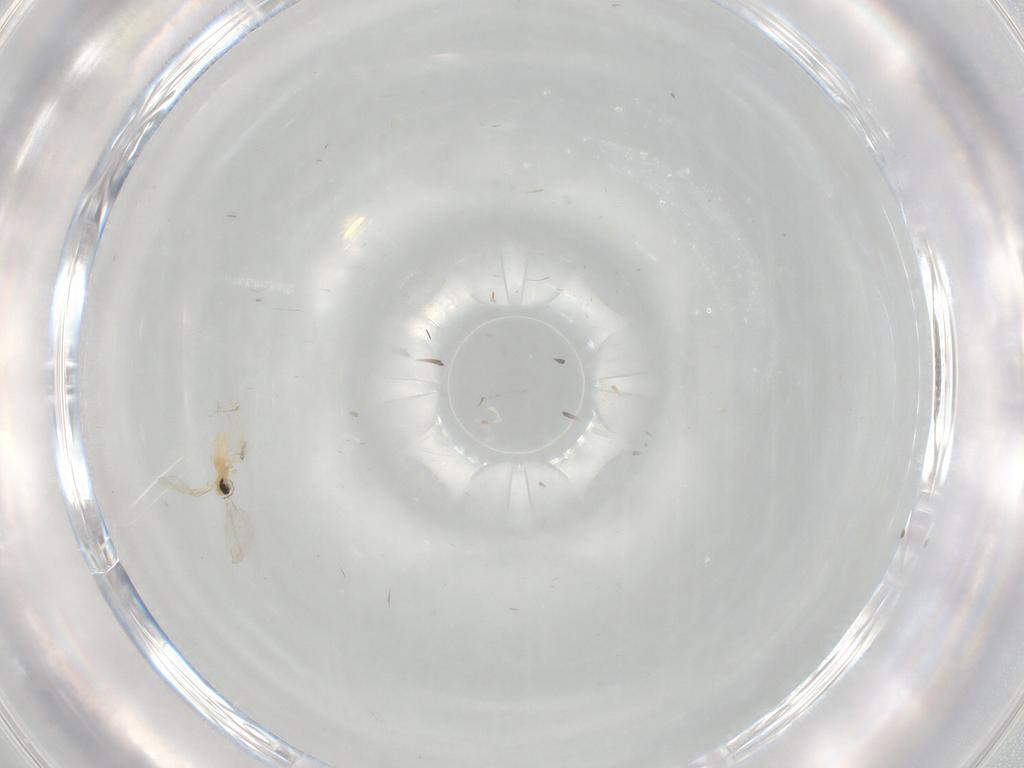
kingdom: Animalia
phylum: Arthropoda
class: Insecta
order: Diptera
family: Cecidomyiidae
